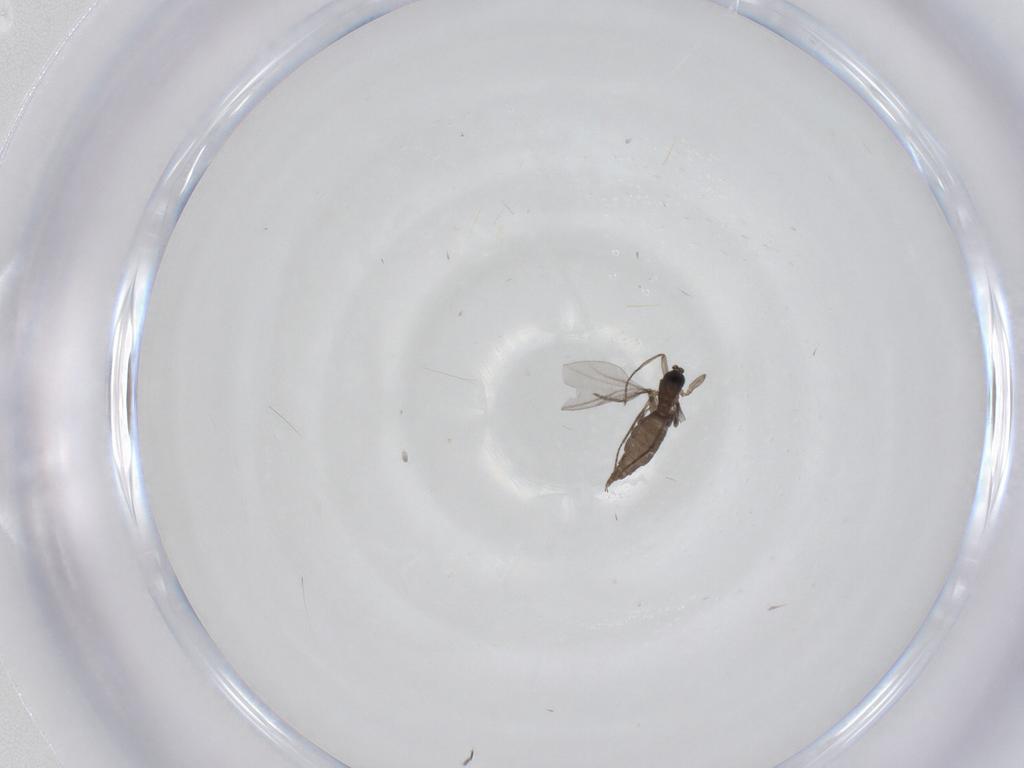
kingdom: Animalia
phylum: Arthropoda
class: Insecta
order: Diptera
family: Sciaridae
